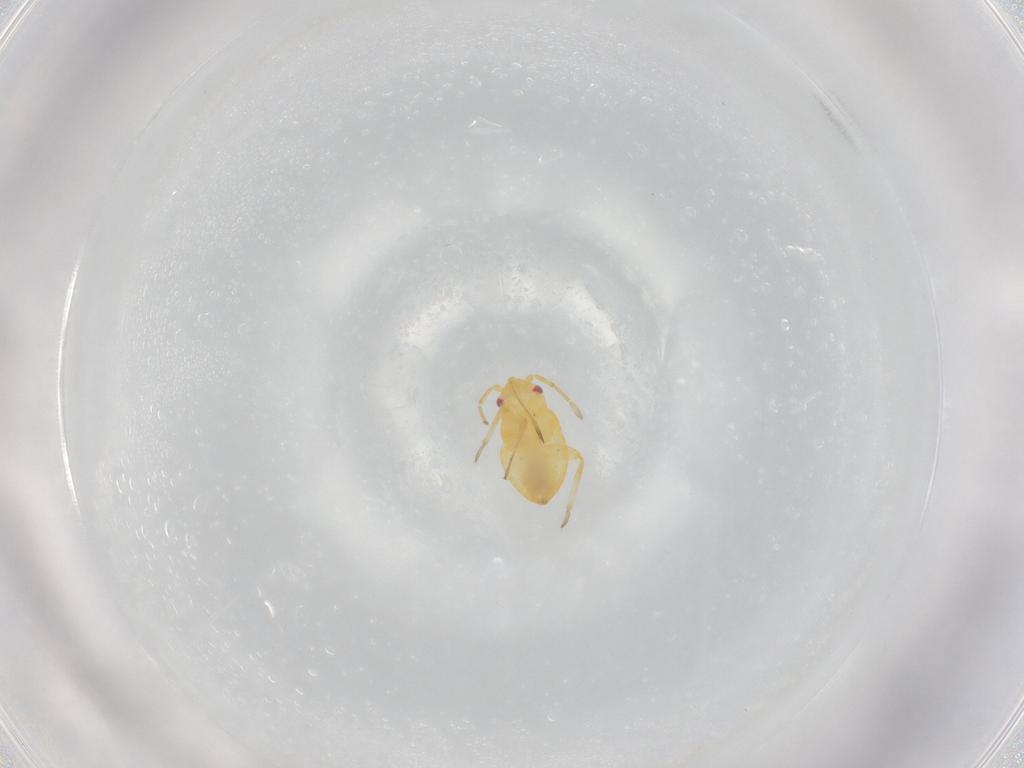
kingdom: Animalia
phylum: Arthropoda
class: Insecta
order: Hemiptera
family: Miridae
